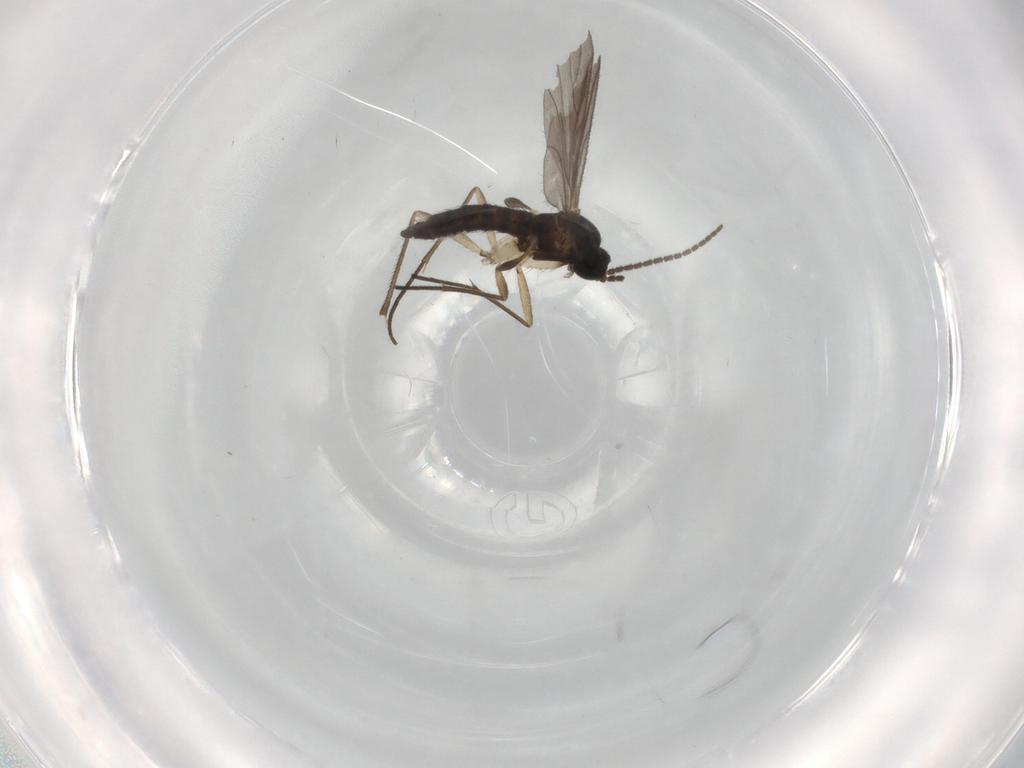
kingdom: Animalia
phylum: Arthropoda
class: Insecta
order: Diptera
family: Sciaridae
